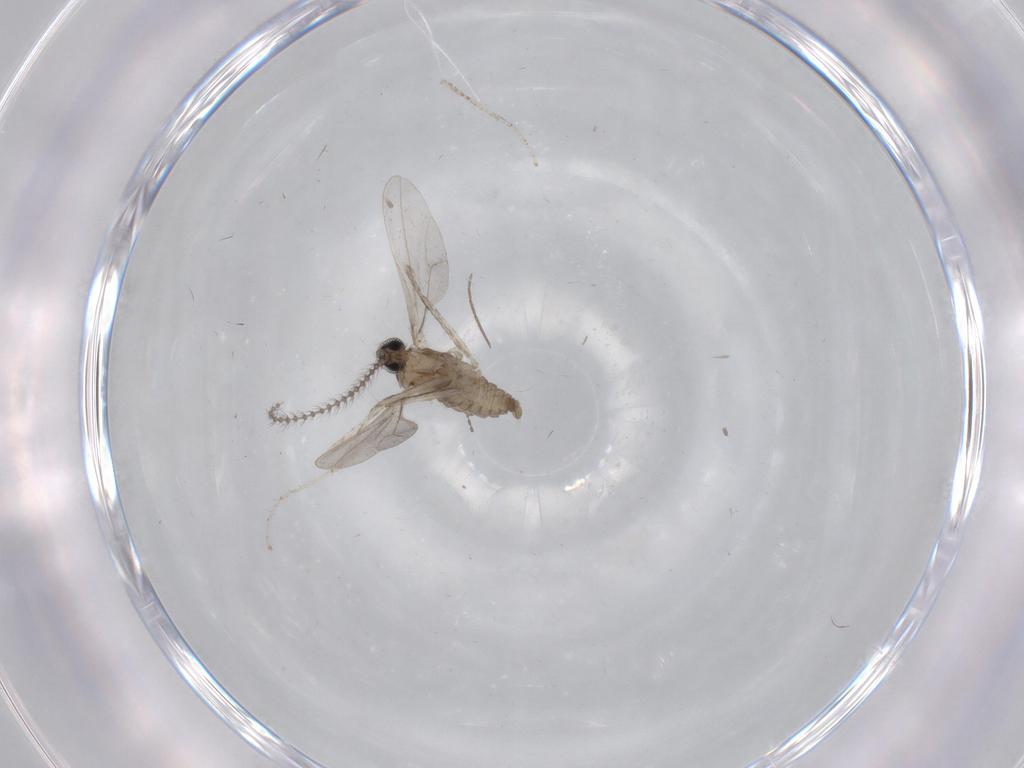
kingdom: Animalia
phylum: Arthropoda
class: Insecta
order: Diptera
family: Cecidomyiidae
